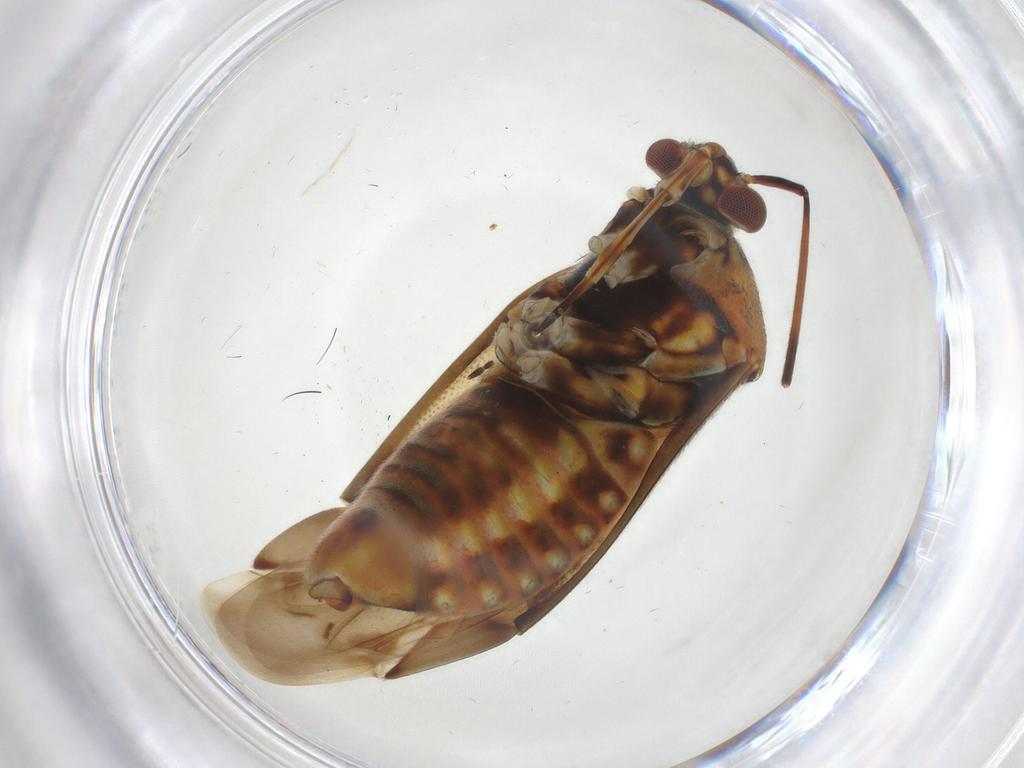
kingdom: Animalia
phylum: Arthropoda
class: Insecta
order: Hemiptera
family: Miridae
